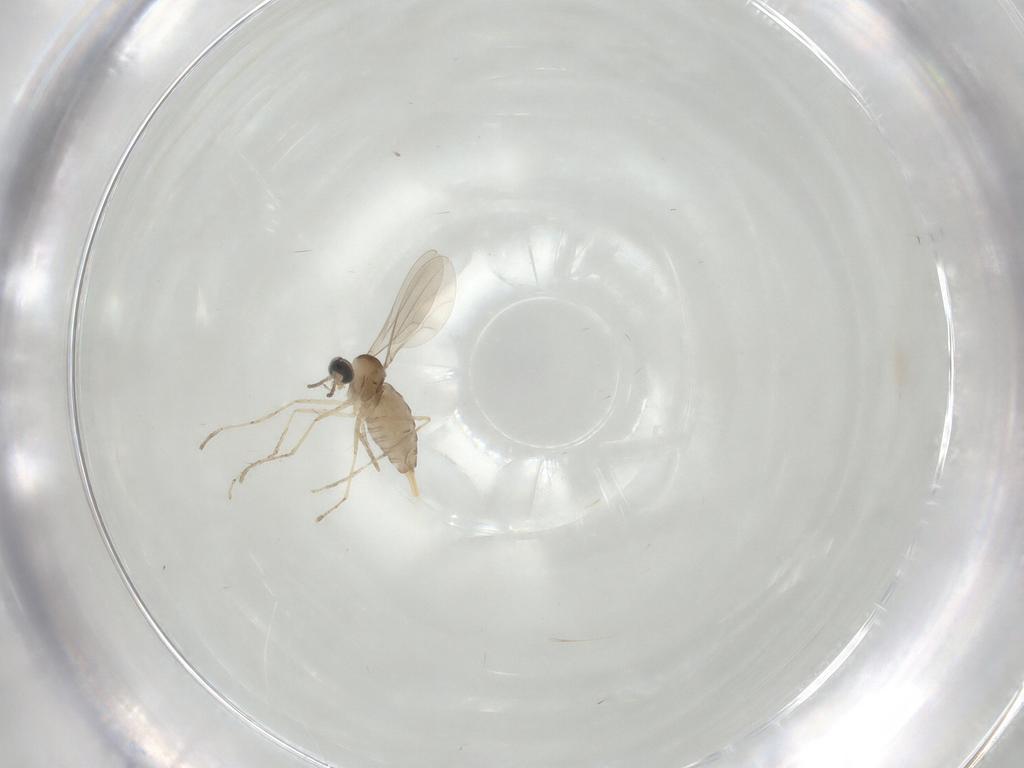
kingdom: Animalia
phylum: Arthropoda
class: Insecta
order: Diptera
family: Cecidomyiidae
